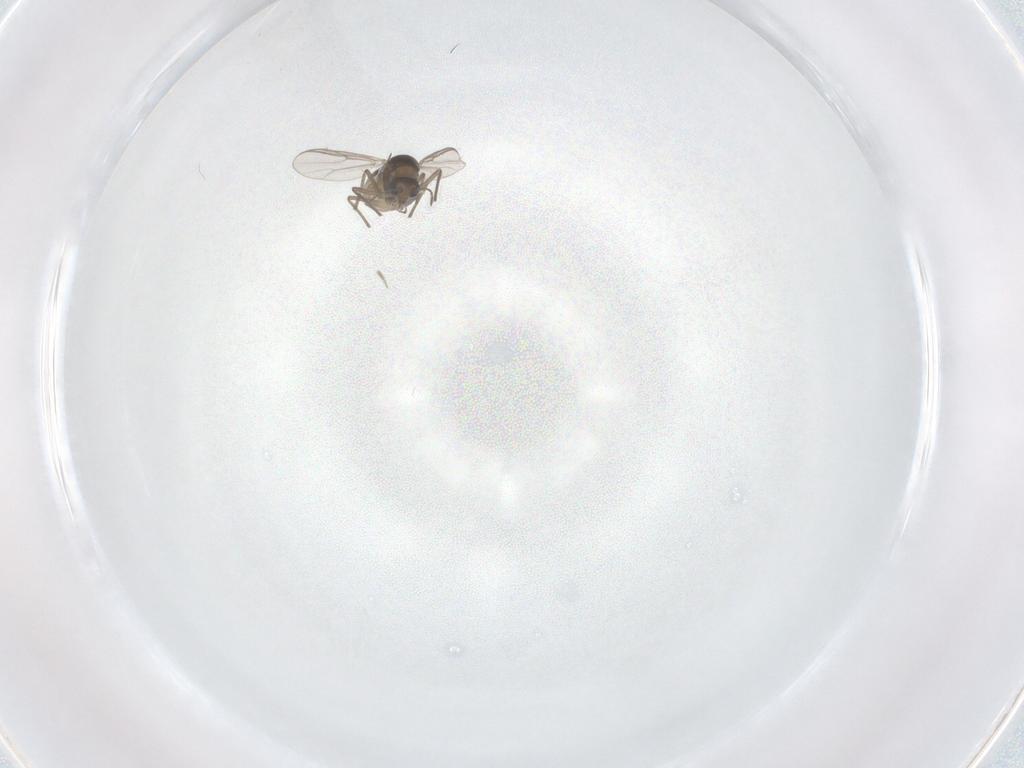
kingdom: Animalia
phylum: Arthropoda
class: Insecta
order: Diptera
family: Chironomidae
